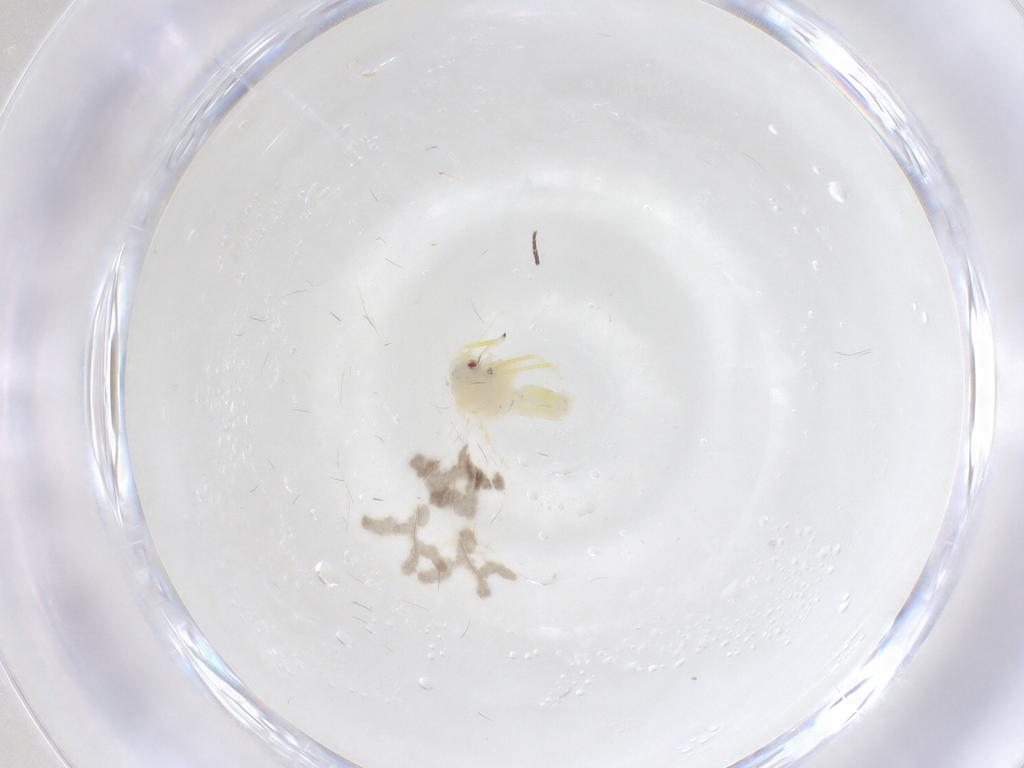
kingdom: Animalia
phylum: Arthropoda
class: Insecta
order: Hemiptera
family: Aleyrodidae
